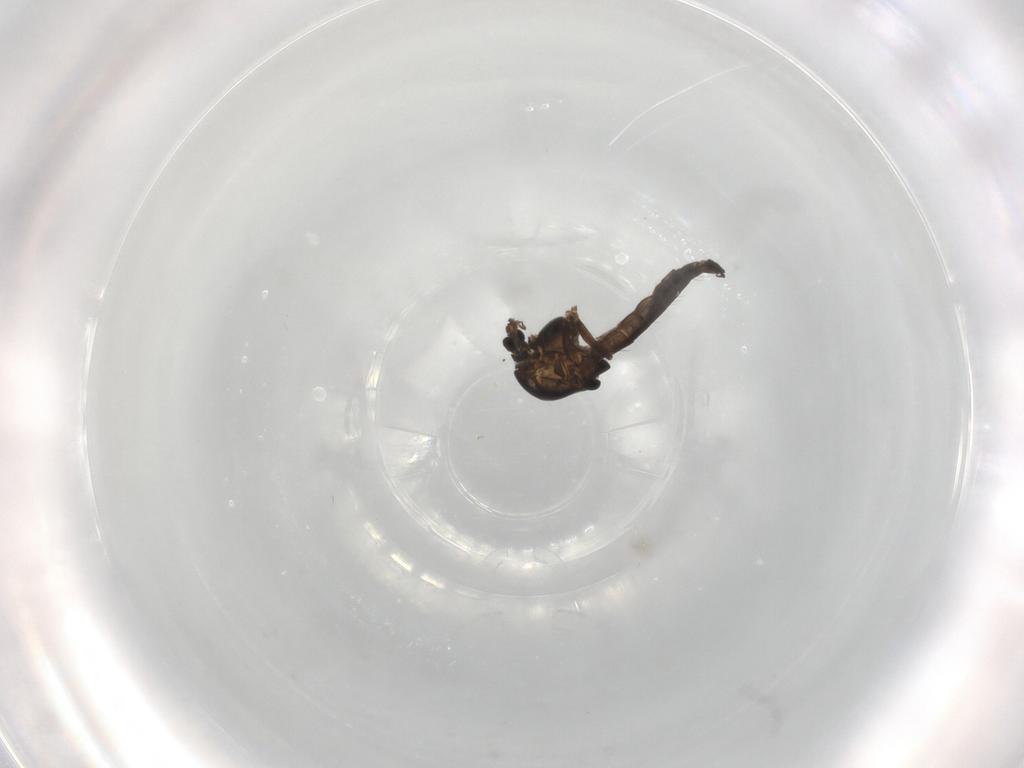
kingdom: Animalia
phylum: Arthropoda
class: Insecta
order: Diptera
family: Chironomidae
